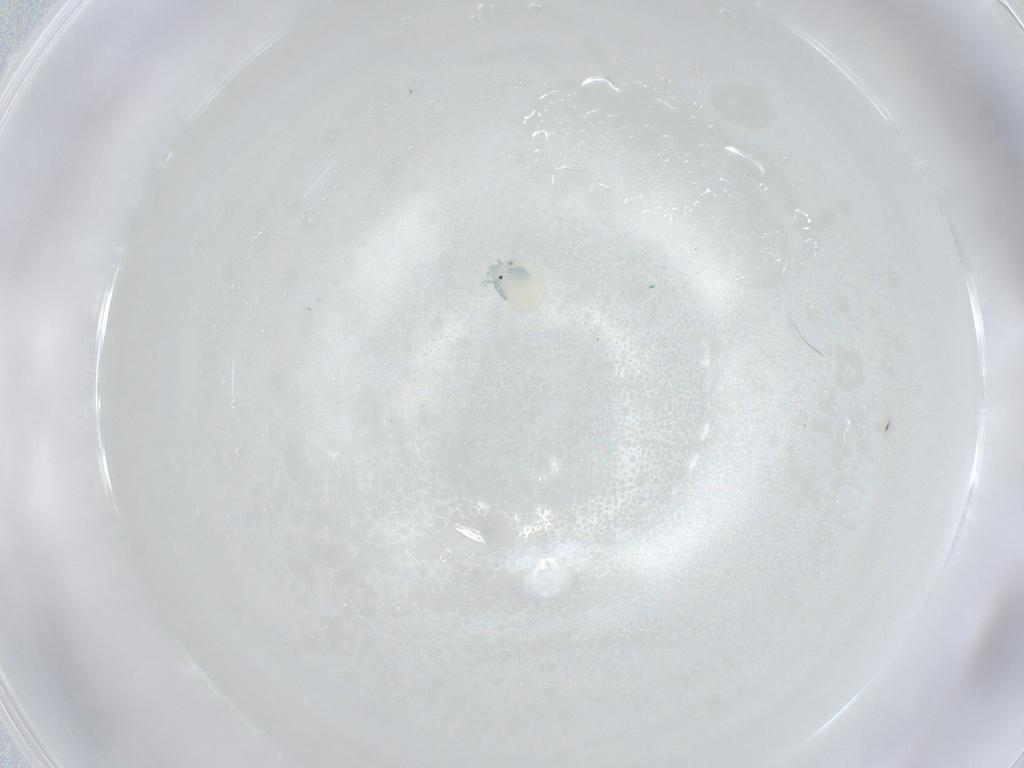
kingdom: Animalia
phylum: Arthropoda
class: Arachnida
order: Trombidiformes
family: Arrenuridae
